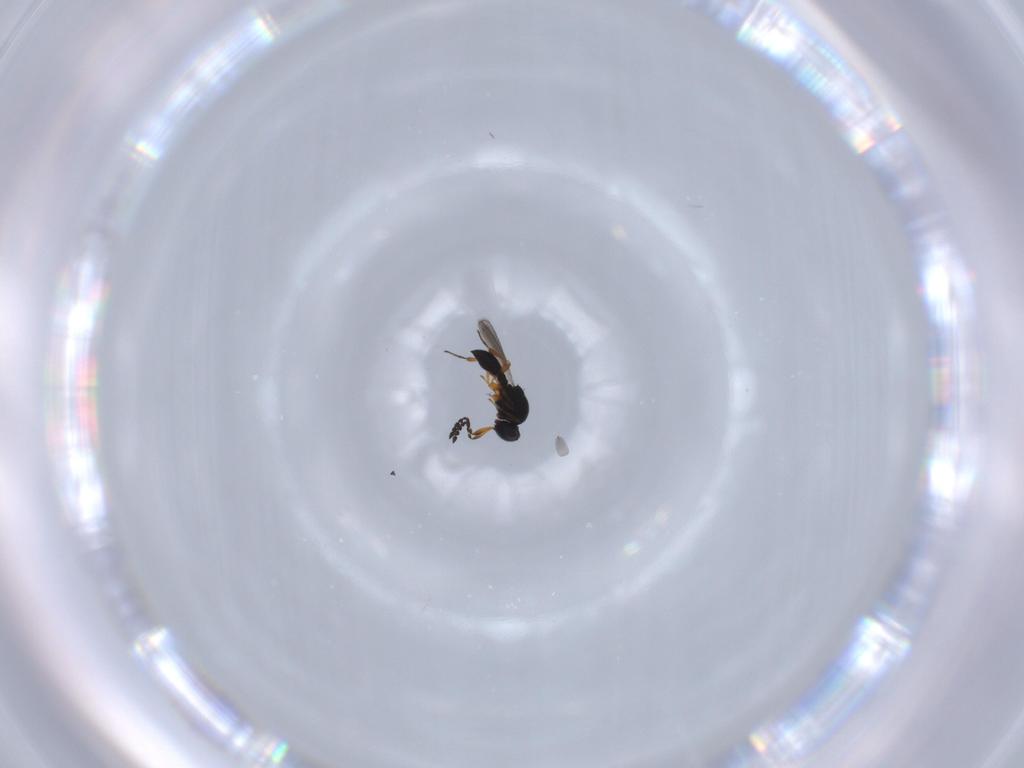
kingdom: Animalia
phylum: Arthropoda
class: Insecta
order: Hymenoptera
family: Platygastridae
